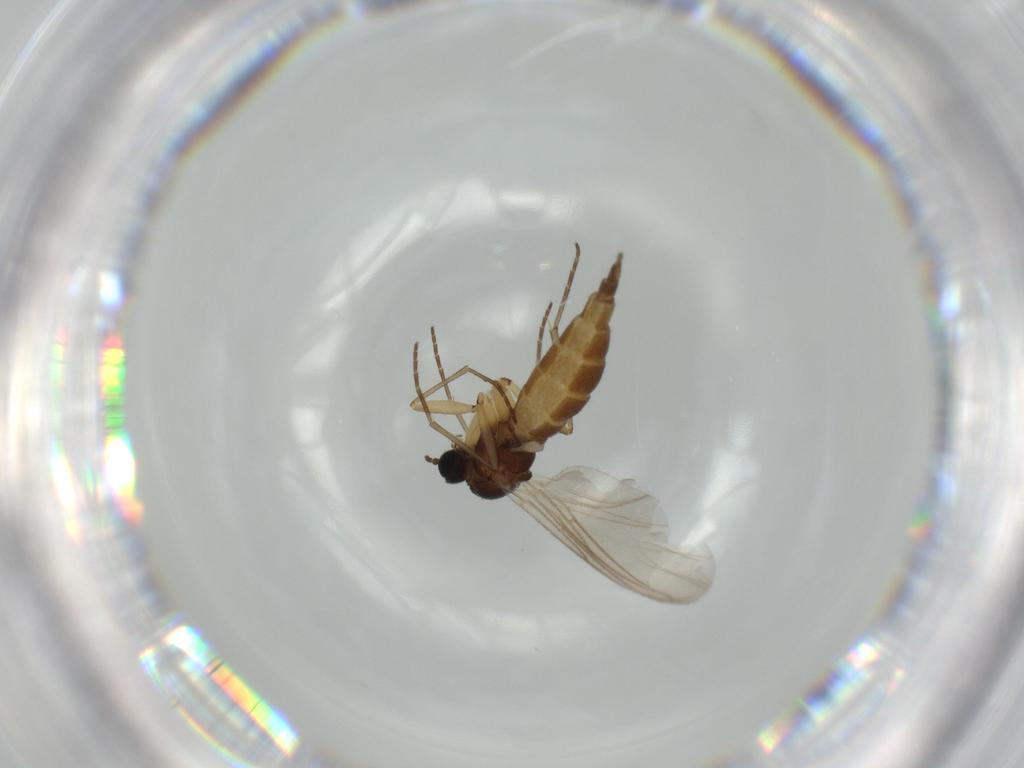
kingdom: Animalia
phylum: Arthropoda
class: Insecta
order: Diptera
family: Sciaridae
